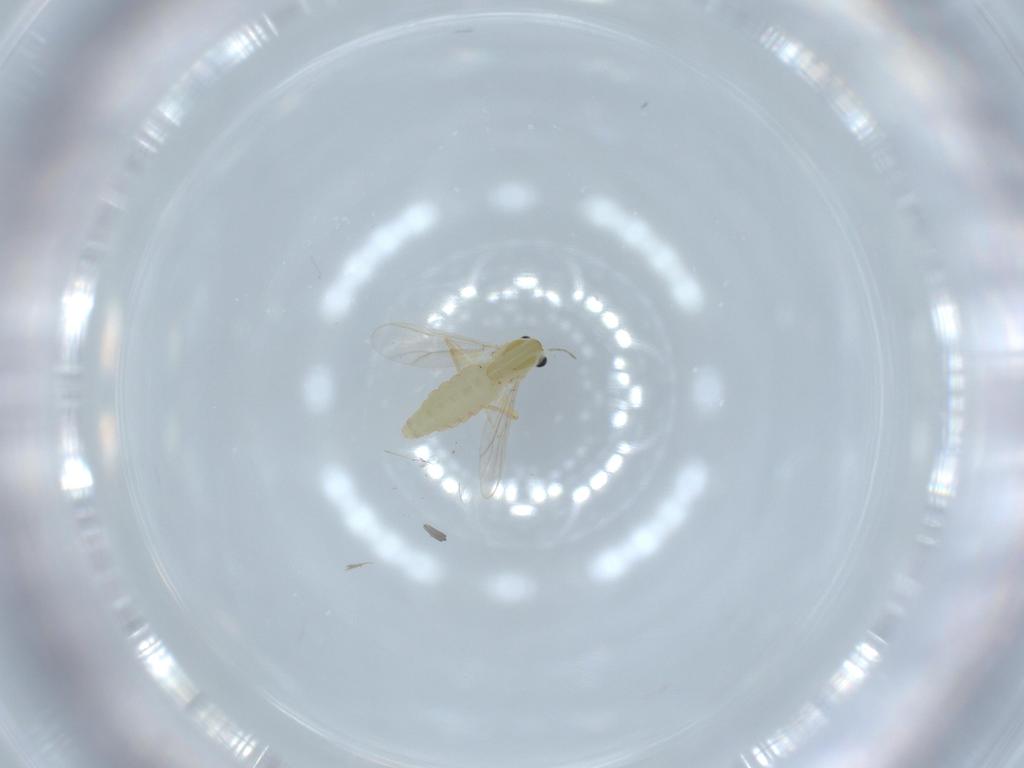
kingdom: Animalia
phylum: Arthropoda
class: Insecta
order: Diptera
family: Chironomidae
